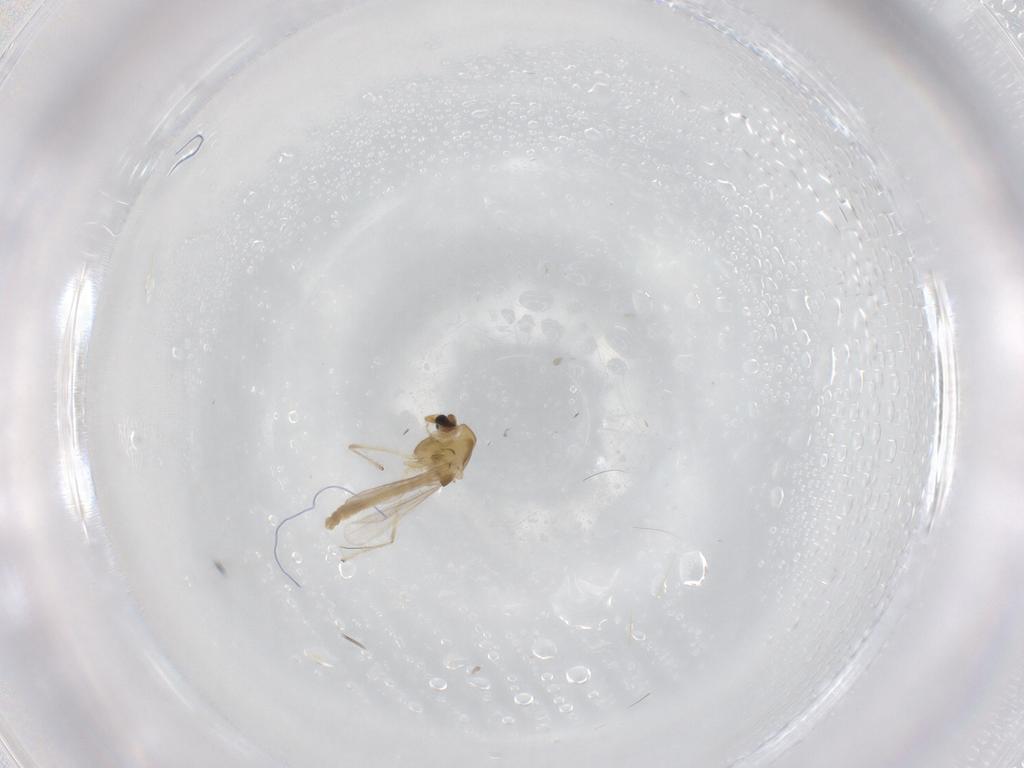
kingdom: Animalia
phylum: Arthropoda
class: Insecta
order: Diptera
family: Chironomidae
